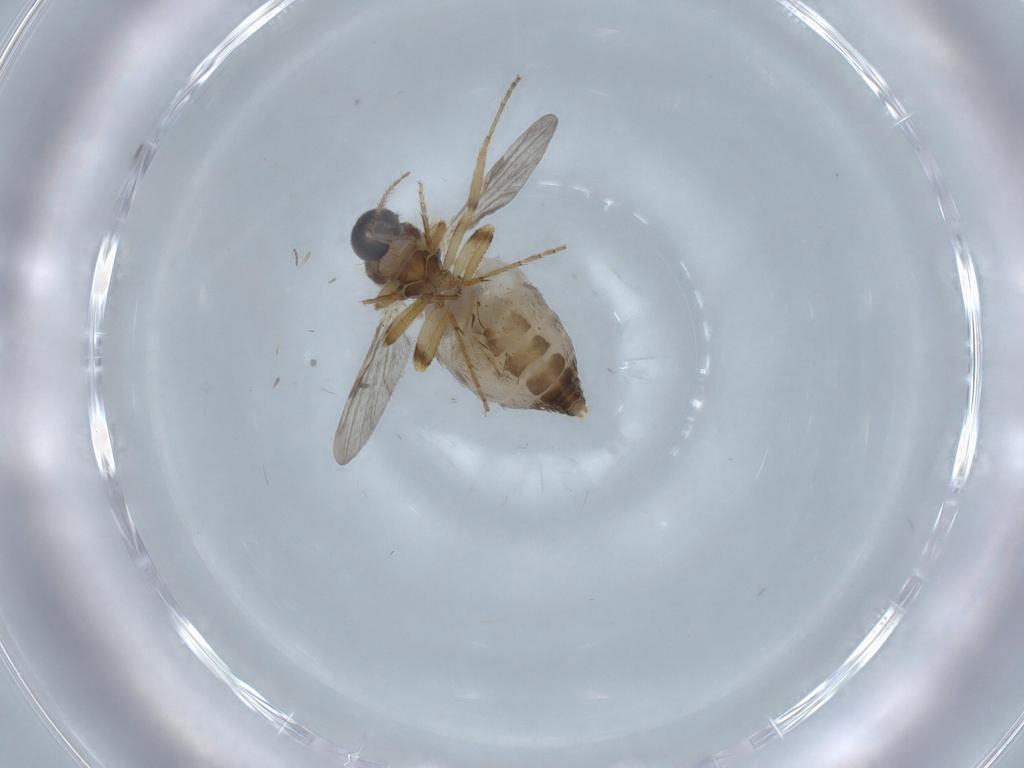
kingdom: Animalia
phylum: Arthropoda
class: Insecta
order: Diptera
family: Ceratopogonidae
